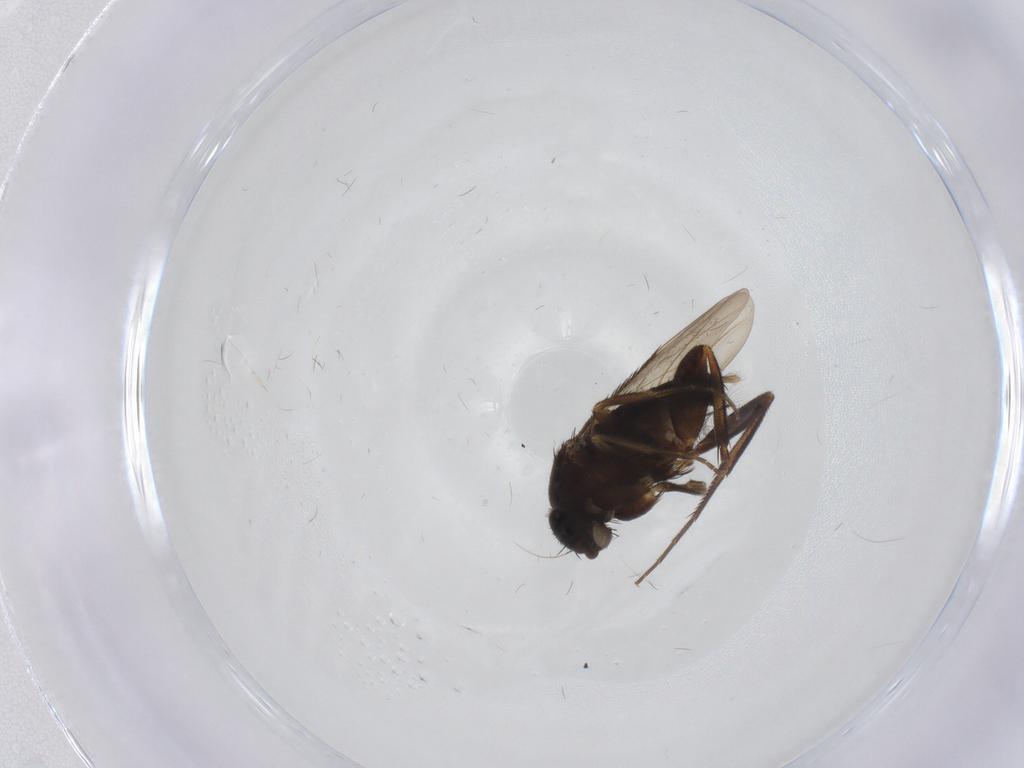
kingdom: Animalia
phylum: Arthropoda
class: Insecta
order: Diptera
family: Phoridae
